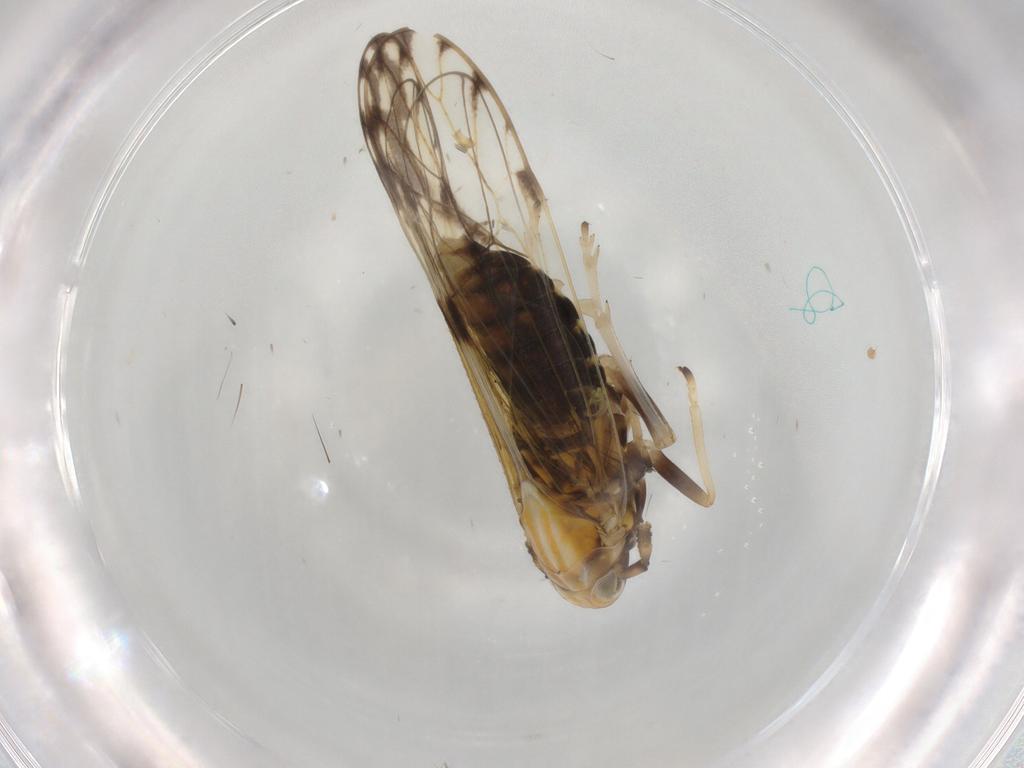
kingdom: Animalia
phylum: Arthropoda
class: Insecta
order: Hemiptera
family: Delphacidae
